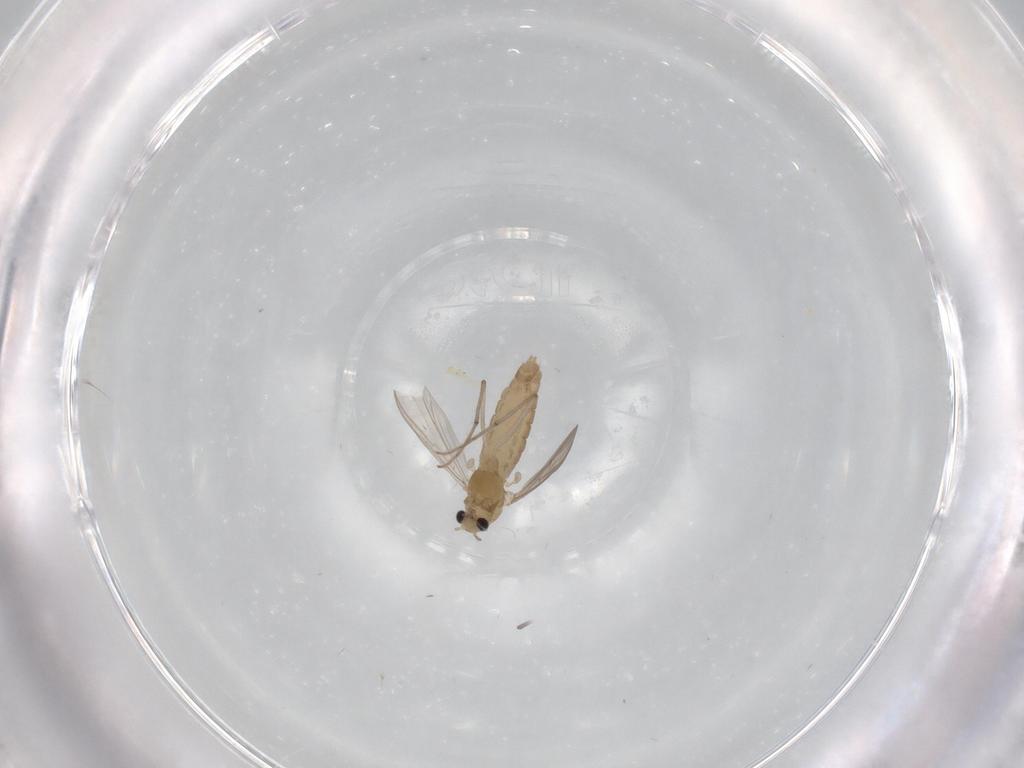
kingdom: Animalia
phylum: Arthropoda
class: Insecta
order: Diptera
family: Chironomidae
